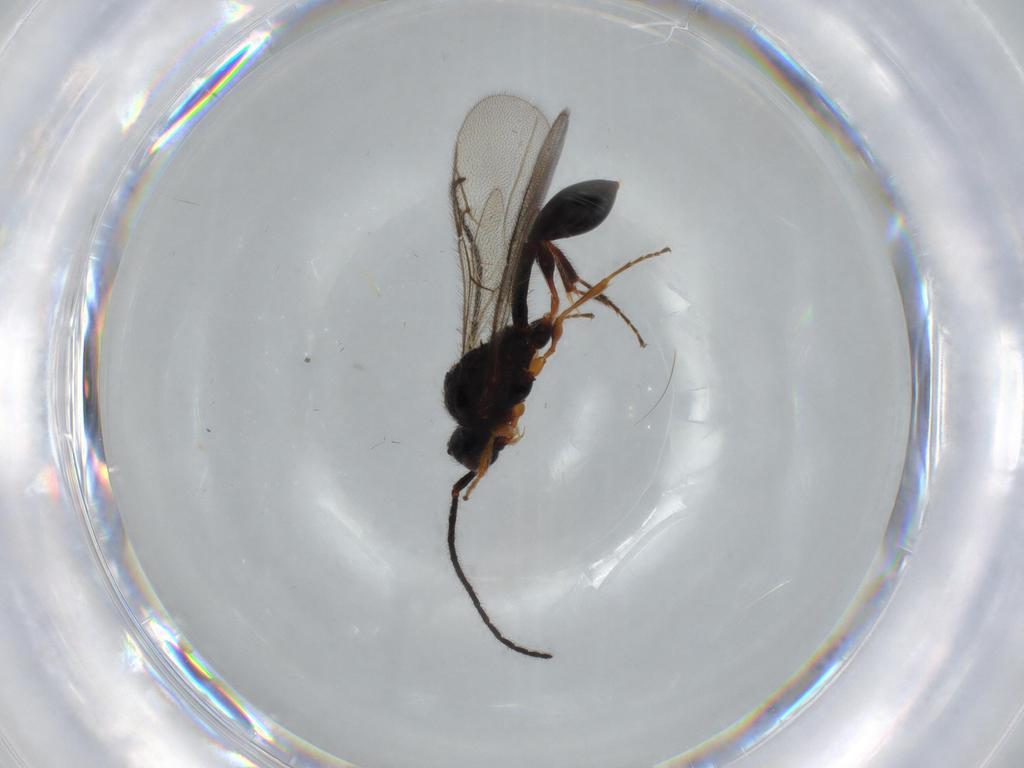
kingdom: Animalia
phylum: Arthropoda
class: Insecta
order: Hymenoptera
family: Diapriidae
